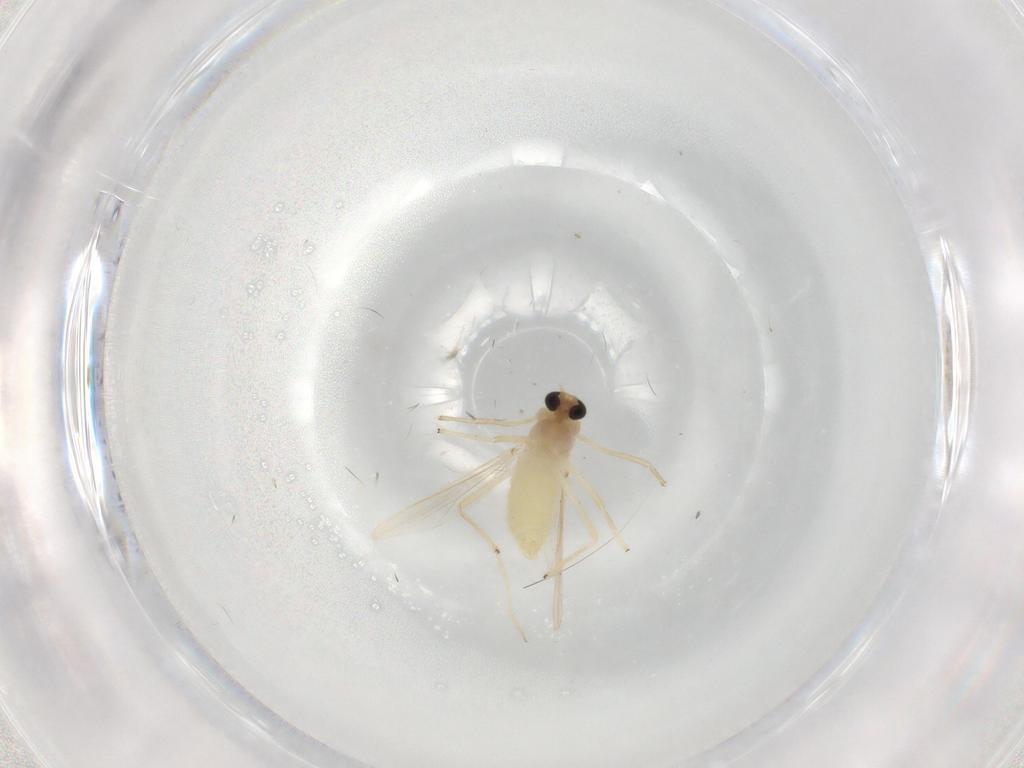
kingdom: Animalia
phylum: Arthropoda
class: Insecta
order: Diptera
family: Chironomidae
